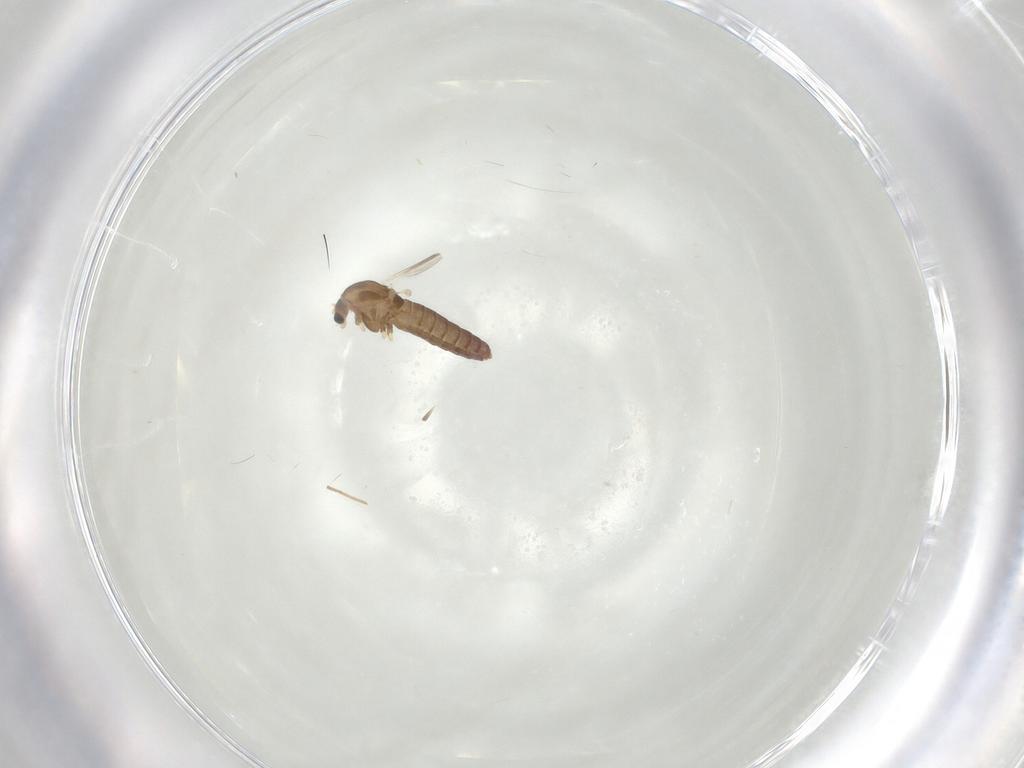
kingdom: Animalia
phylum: Arthropoda
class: Insecta
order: Diptera
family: Chironomidae
